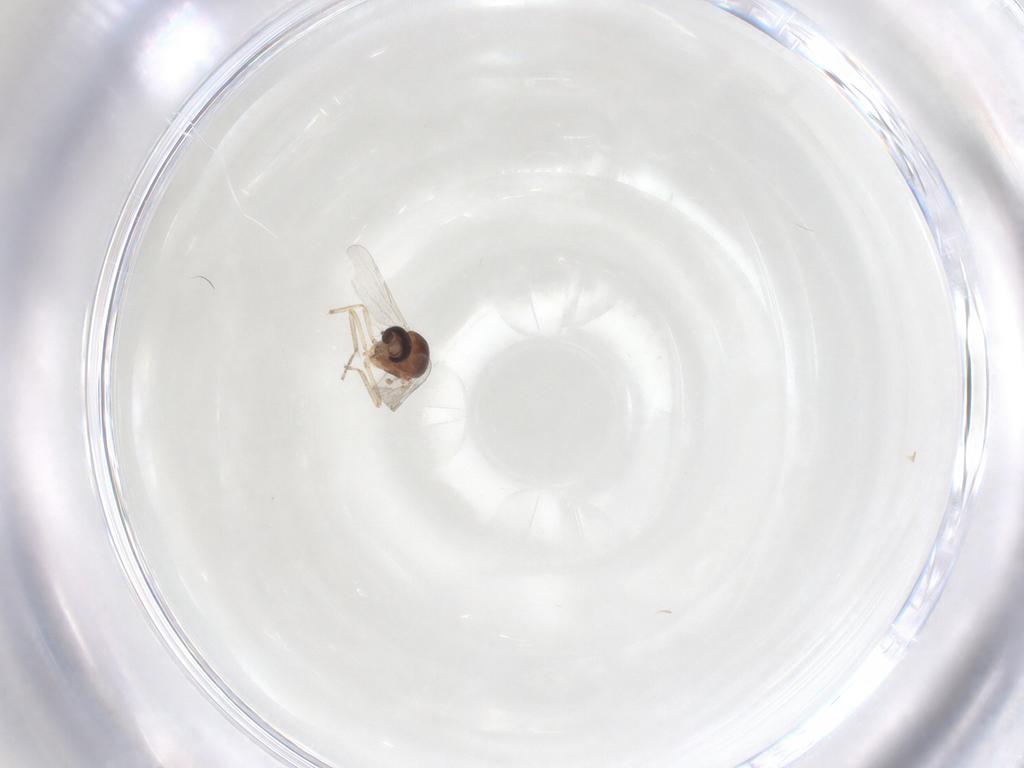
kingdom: Animalia
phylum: Arthropoda
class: Insecta
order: Diptera
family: Ceratopogonidae
